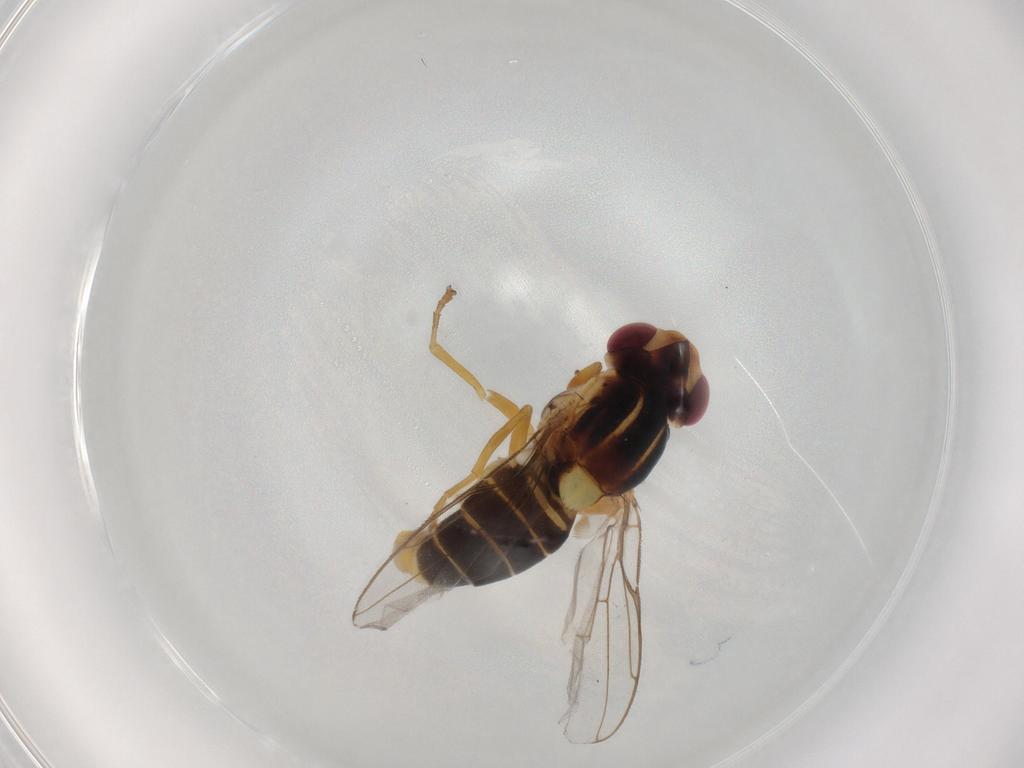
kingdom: Animalia
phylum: Arthropoda
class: Insecta
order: Diptera
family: Chloropidae
